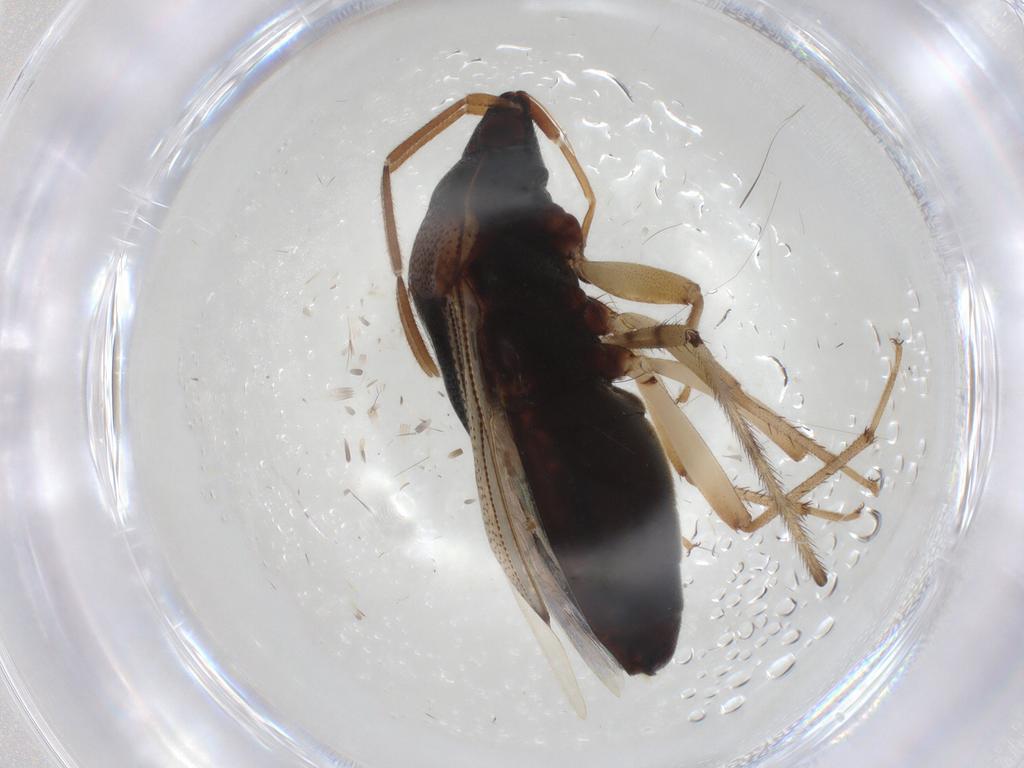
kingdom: Animalia
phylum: Arthropoda
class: Insecta
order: Hemiptera
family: Rhyparochromidae
